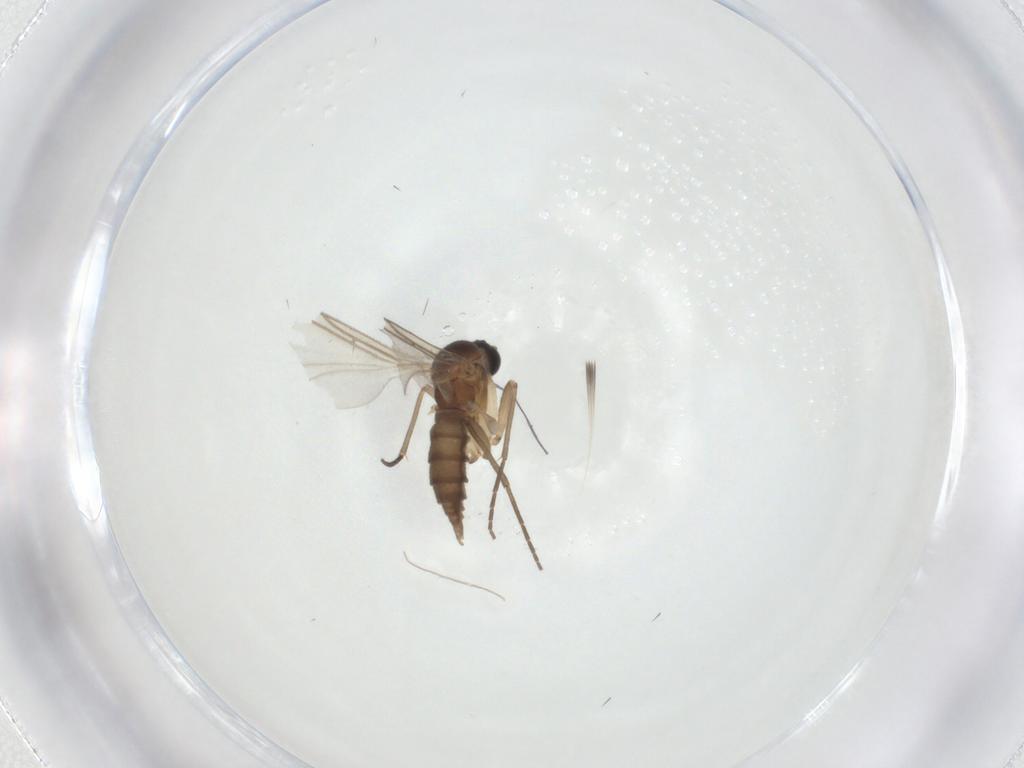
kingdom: Animalia
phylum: Arthropoda
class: Insecta
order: Diptera
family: Sciaridae
